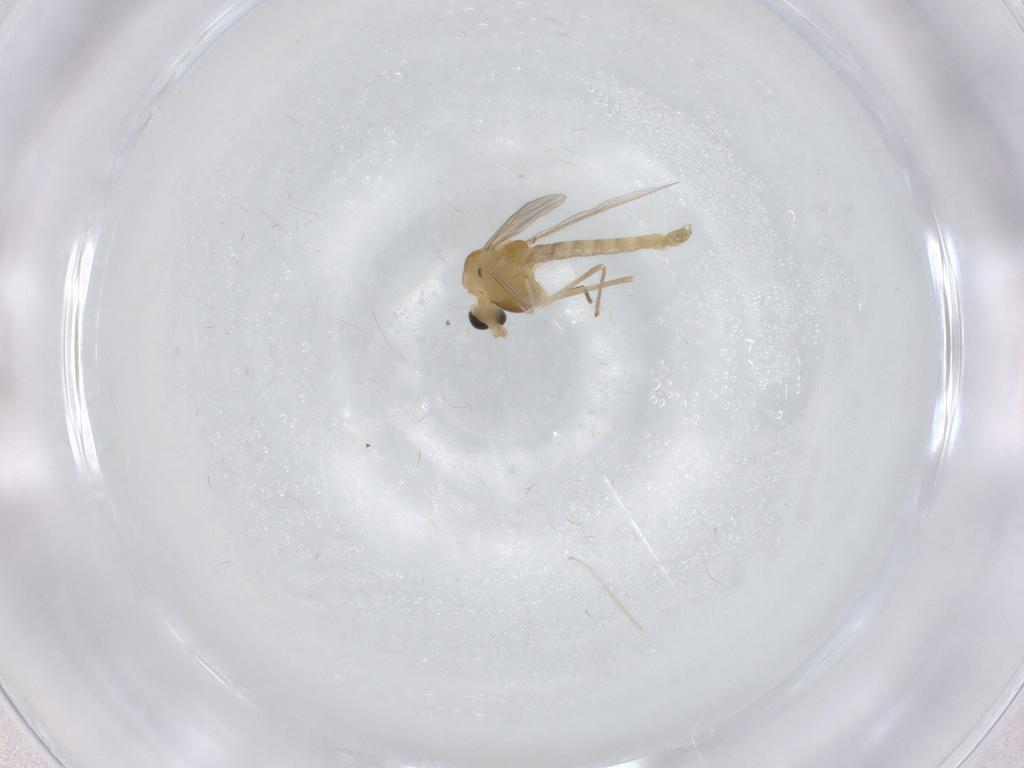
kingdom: Animalia
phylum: Arthropoda
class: Insecta
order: Diptera
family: Chironomidae
